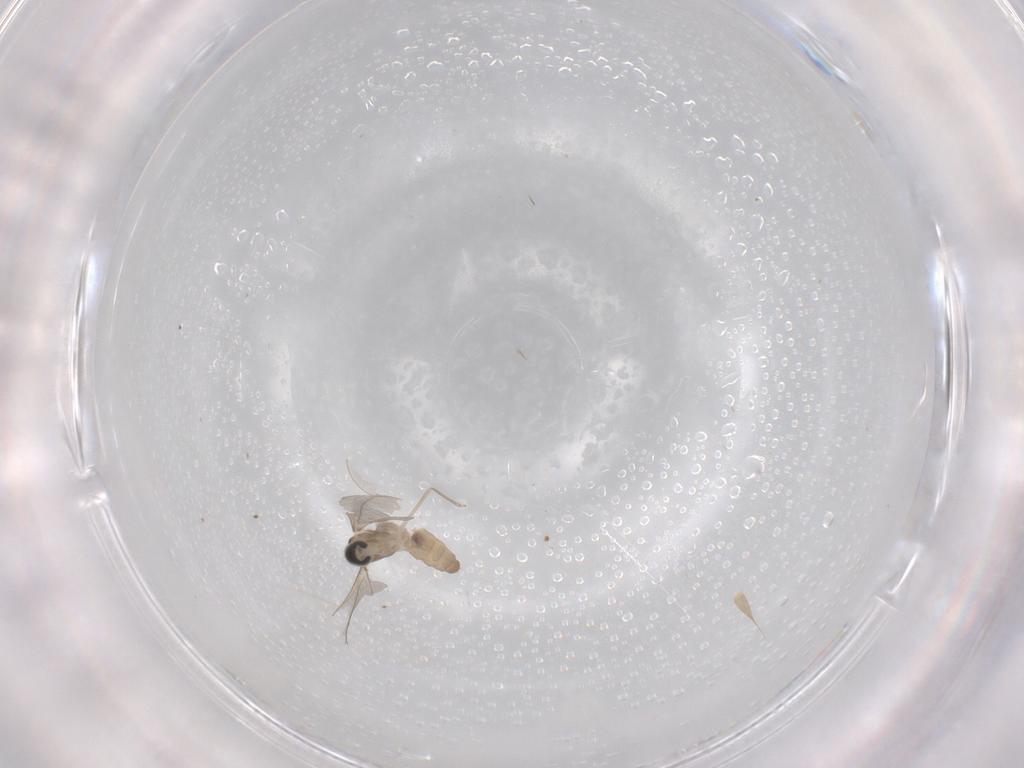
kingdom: Animalia
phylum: Arthropoda
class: Insecta
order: Diptera
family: Cecidomyiidae
